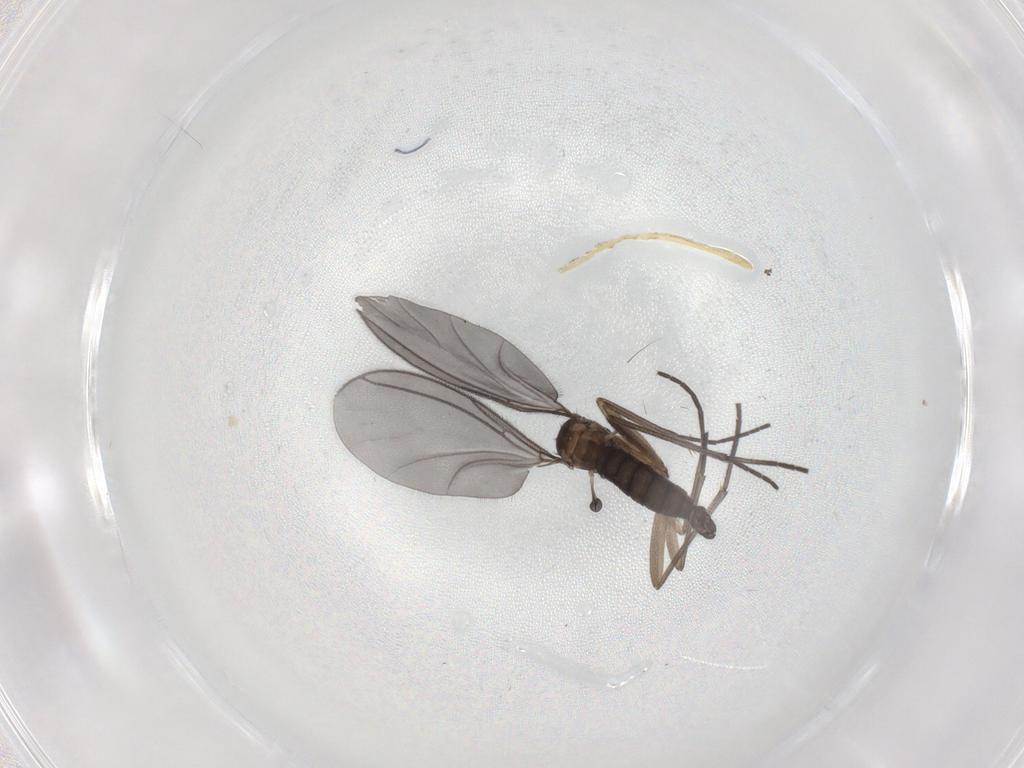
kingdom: Animalia
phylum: Arthropoda
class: Insecta
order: Diptera
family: Sciaridae
